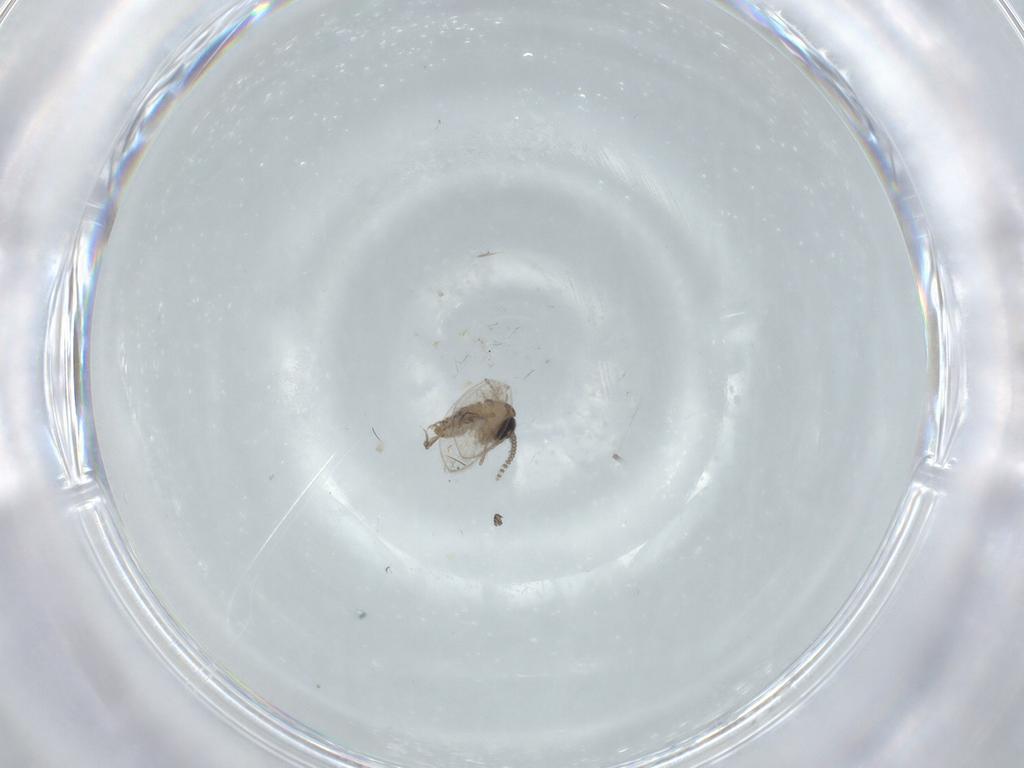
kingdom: Animalia
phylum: Arthropoda
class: Insecta
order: Diptera
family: Psychodidae
